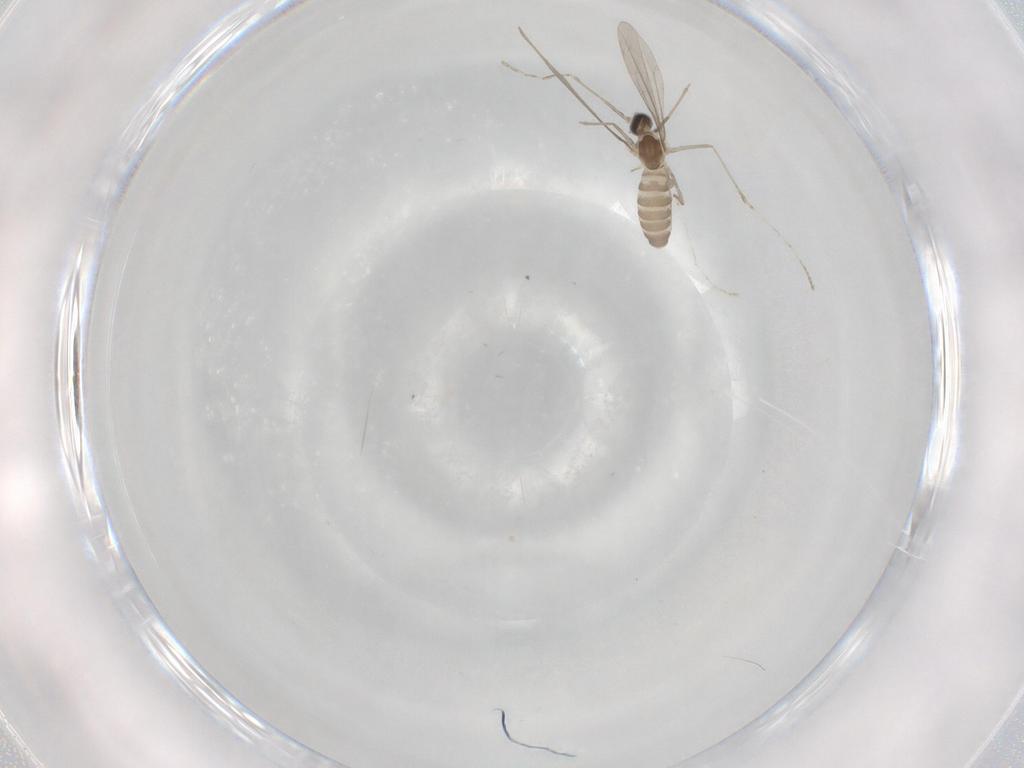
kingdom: Animalia
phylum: Arthropoda
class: Insecta
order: Diptera
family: Cecidomyiidae
